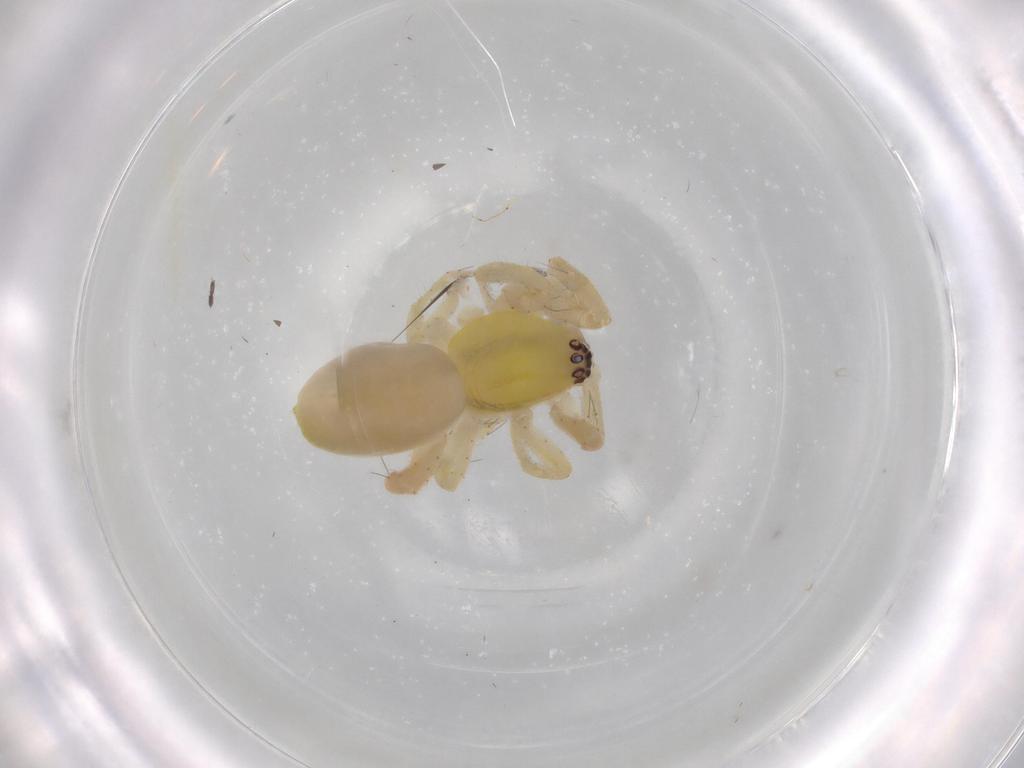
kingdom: Animalia
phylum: Arthropoda
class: Arachnida
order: Araneae
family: Anyphaenidae
